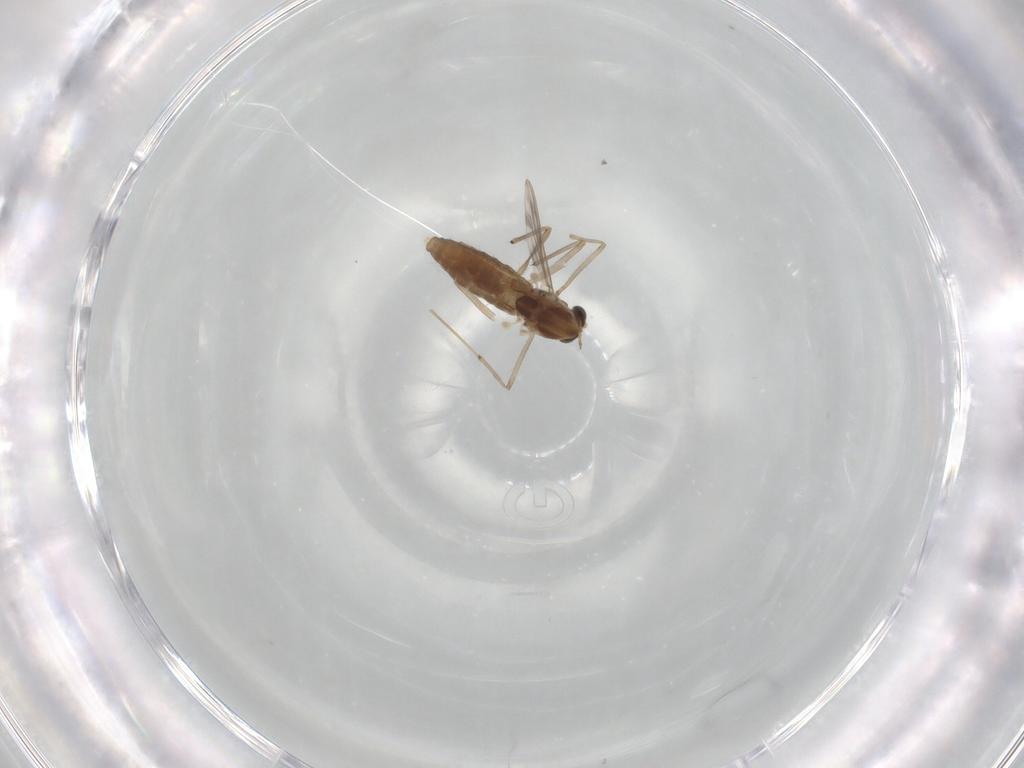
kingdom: Animalia
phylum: Arthropoda
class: Insecta
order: Diptera
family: Chironomidae
